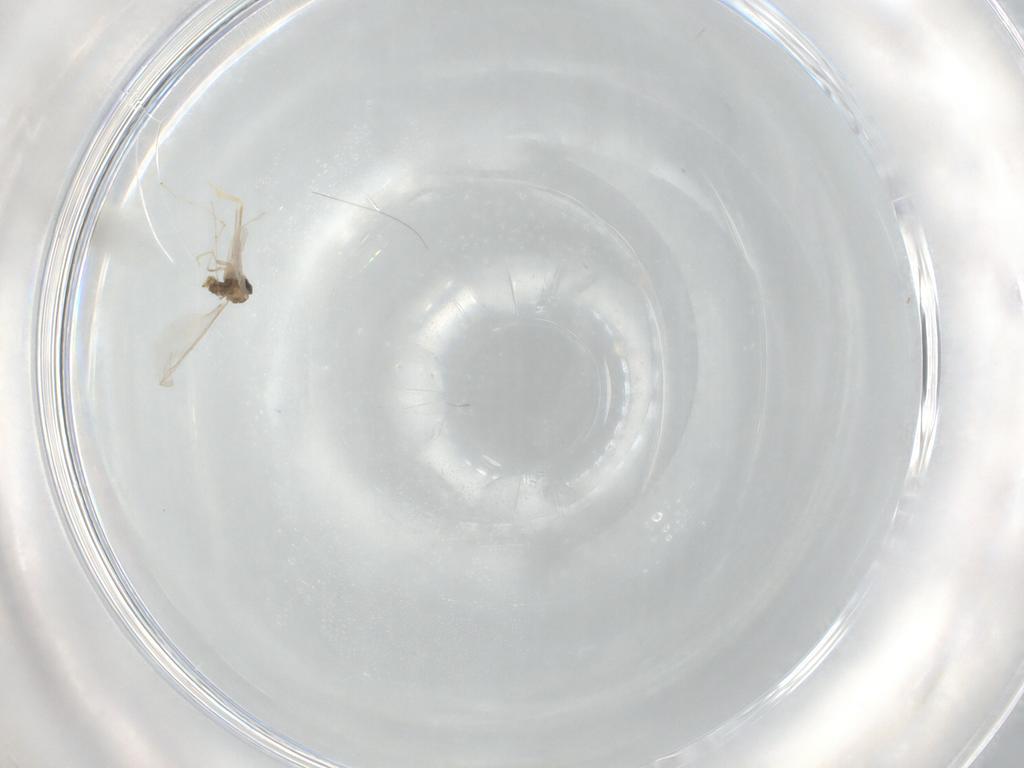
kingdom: Animalia
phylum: Arthropoda
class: Insecta
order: Diptera
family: Cecidomyiidae
